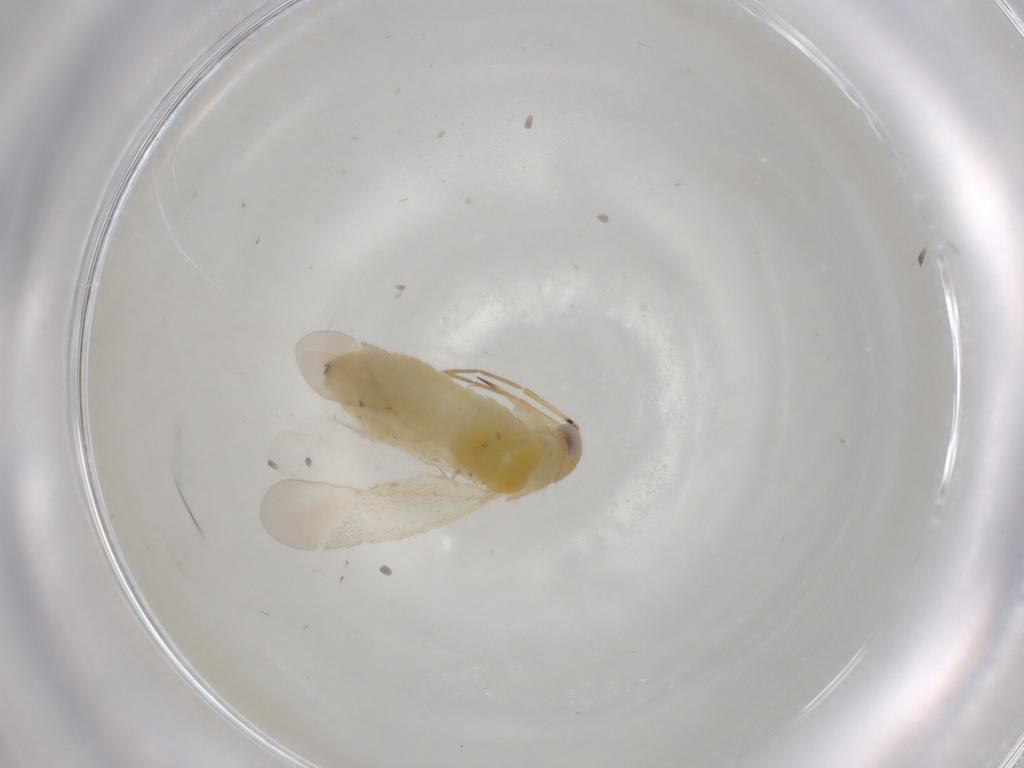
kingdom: Animalia
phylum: Arthropoda
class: Insecta
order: Hemiptera
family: Miridae
